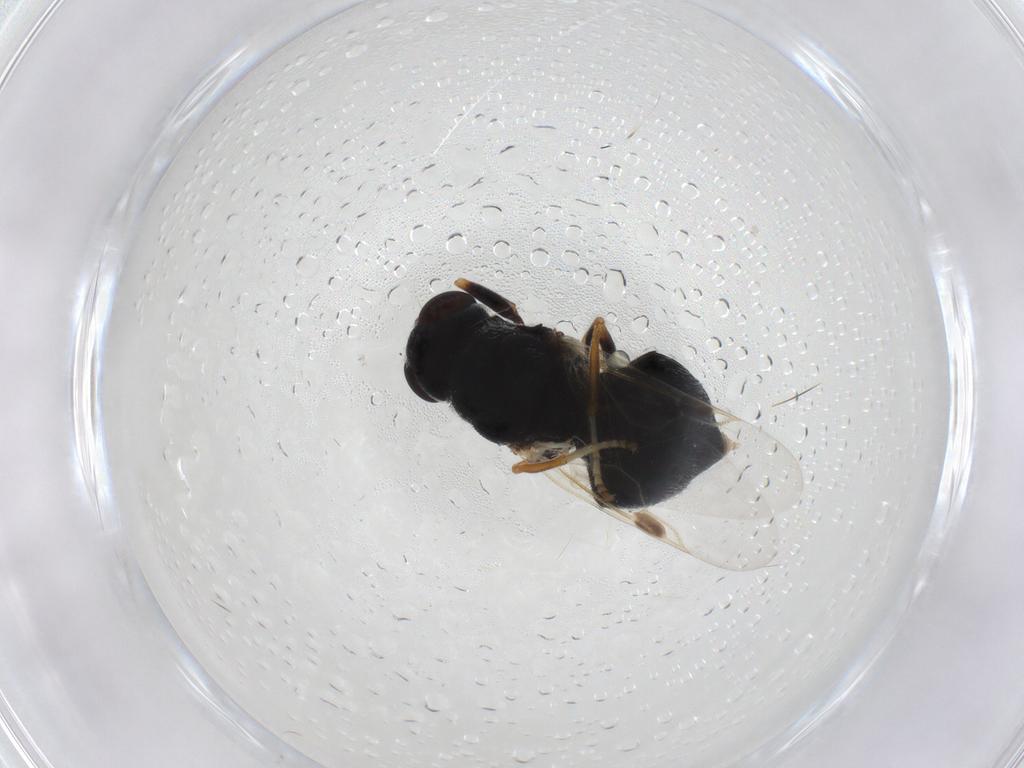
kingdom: Animalia
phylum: Arthropoda
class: Insecta
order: Diptera
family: Stratiomyidae
